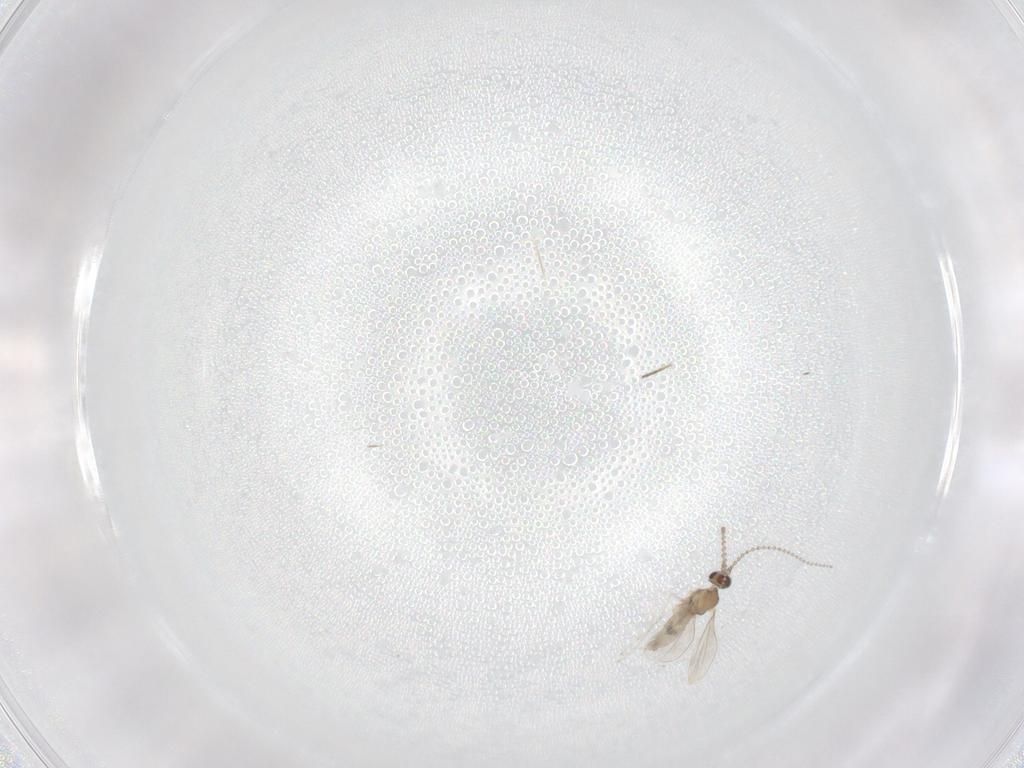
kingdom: Animalia
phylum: Arthropoda
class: Insecta
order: Diptera
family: Cecidomyiidae
